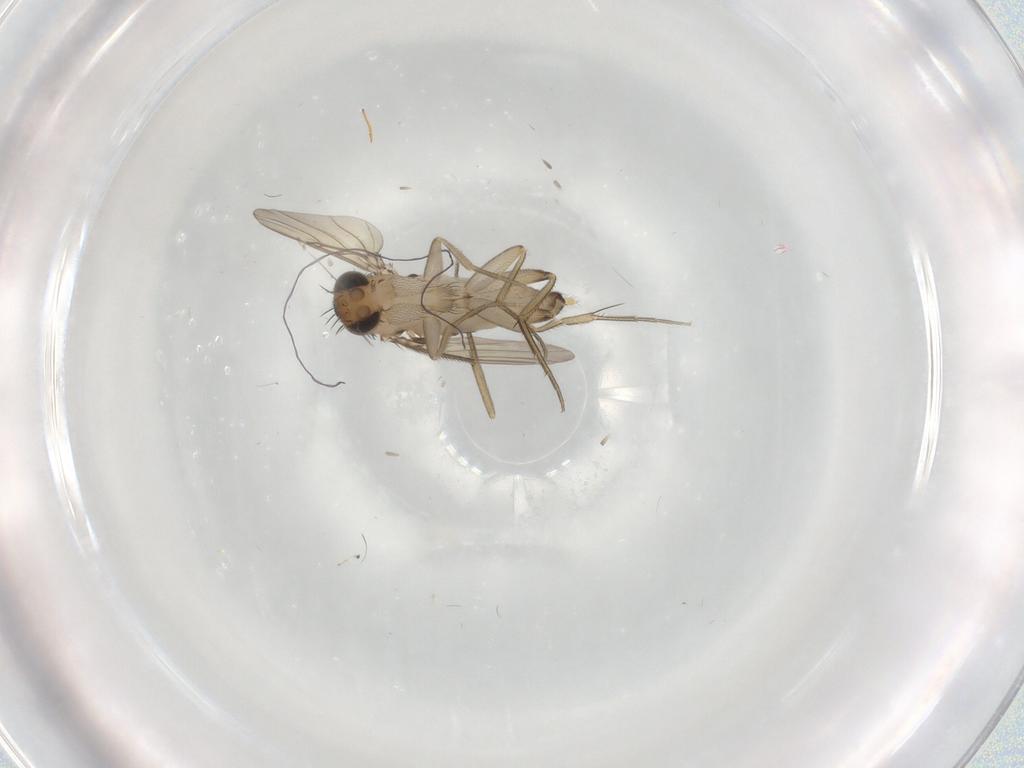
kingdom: Animalia
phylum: Arthropoda
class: Insecta
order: Diptera
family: Phoridae
